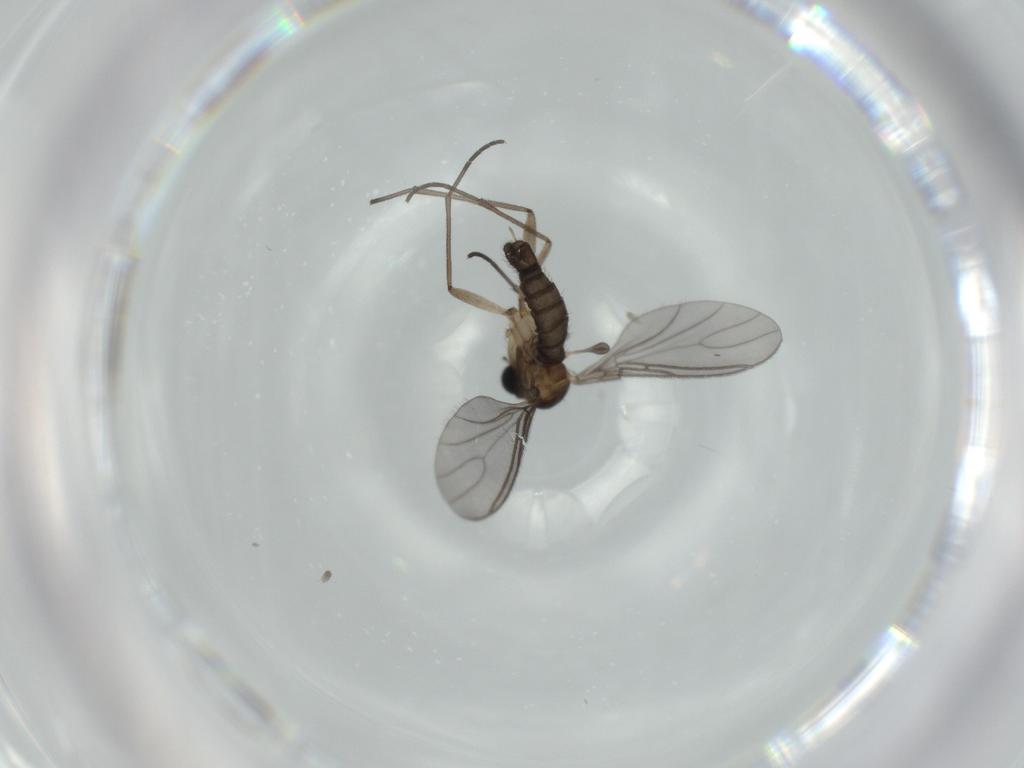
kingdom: Animalia
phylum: Arthropoda
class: Insecta
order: Diptera
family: Sciaridae
